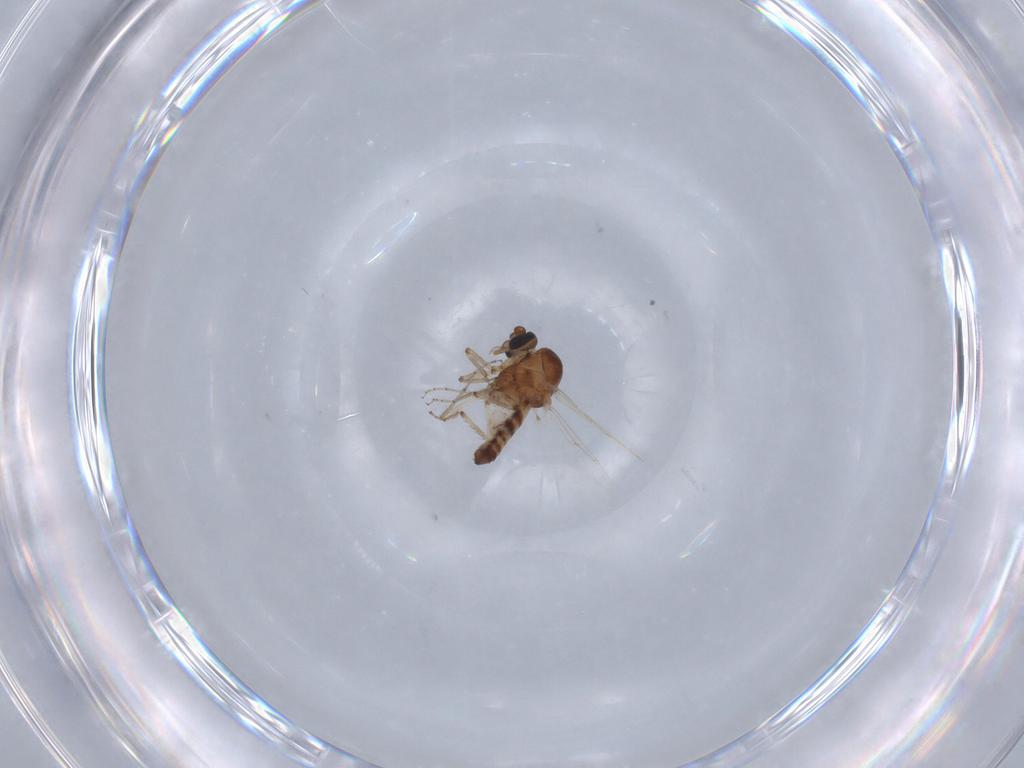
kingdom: Animalia
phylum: Arthropoda
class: Insecta
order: Diptera
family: Ceratopogonidae
